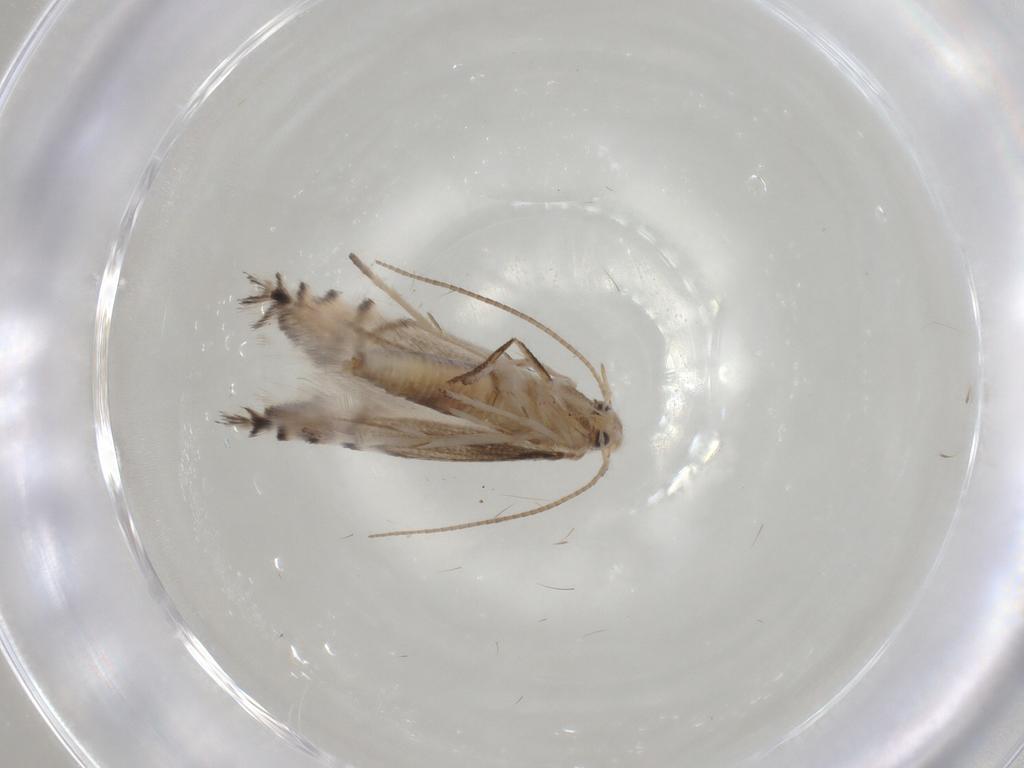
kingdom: Animalia
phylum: Arthropoda
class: Insecta
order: Lepidoptera
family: Gracillariidae
